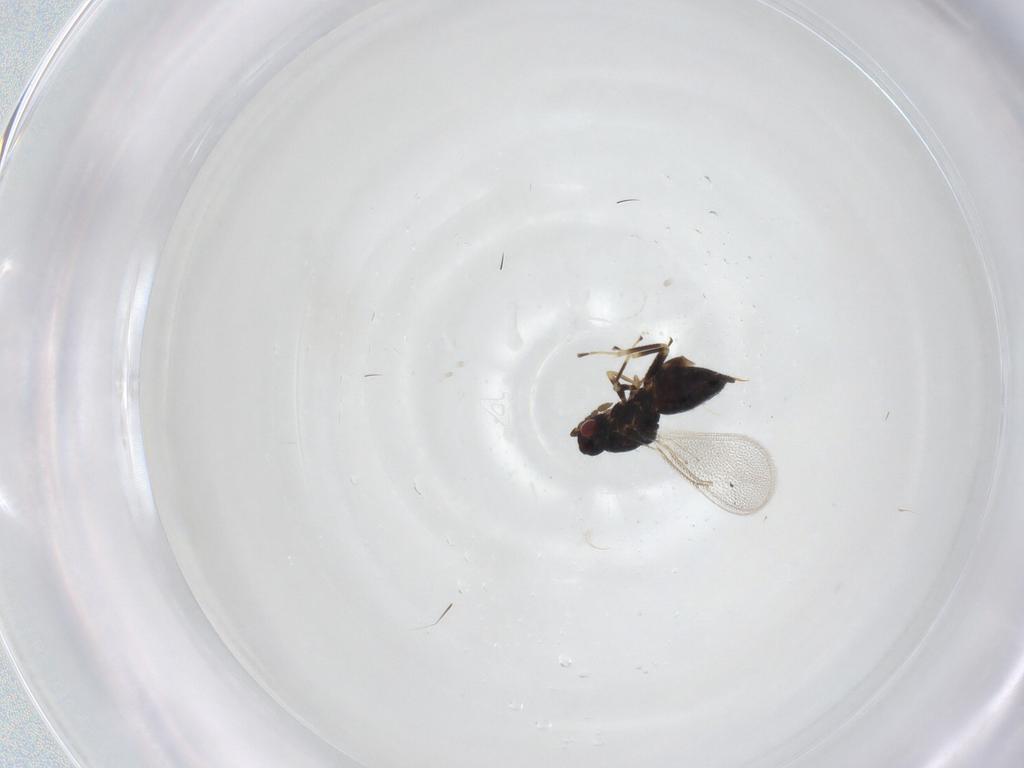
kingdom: Animalia
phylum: Arthropoda
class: Insecta
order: Hymenoptera
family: Eulophidae
